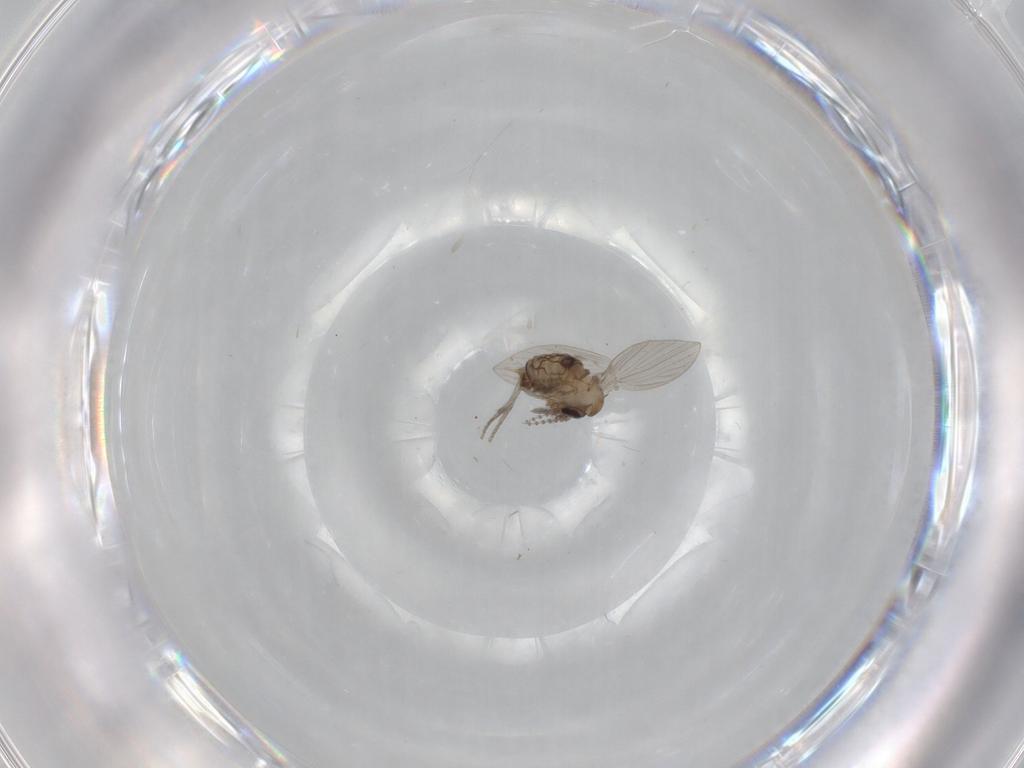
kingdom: Animalia
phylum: Arthropoda
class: Insecta
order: Diptera
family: Psychodidae
